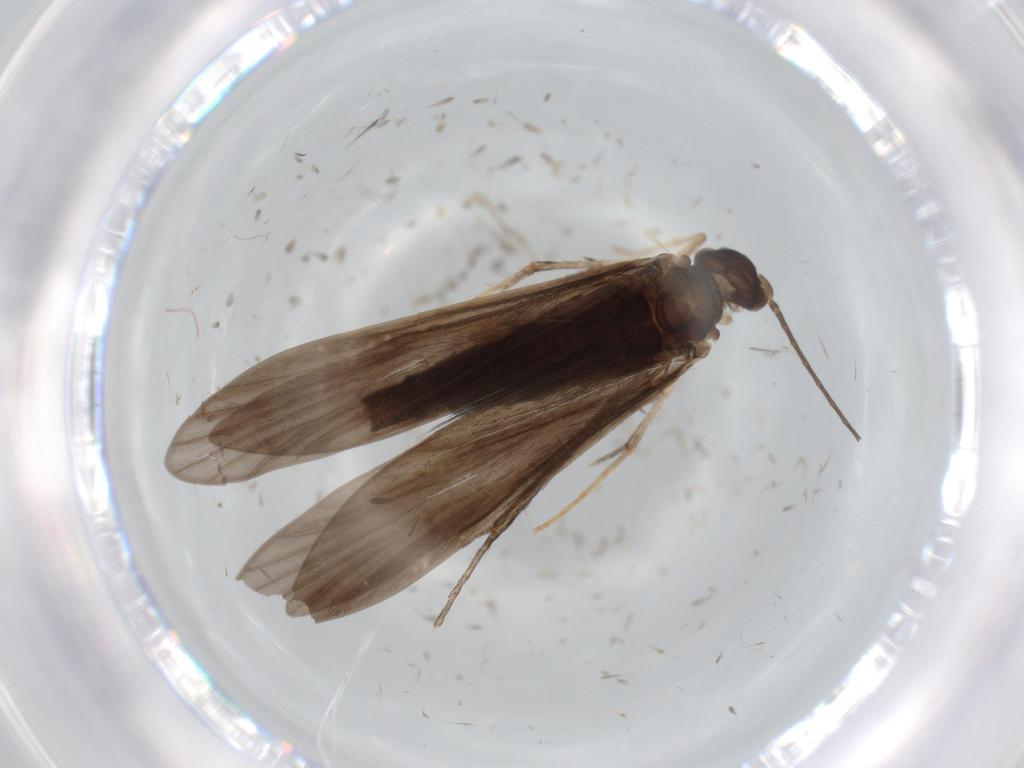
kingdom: Animalia
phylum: Arthropoda
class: Insecta
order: Trichoptera
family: Xiphocentronidae
